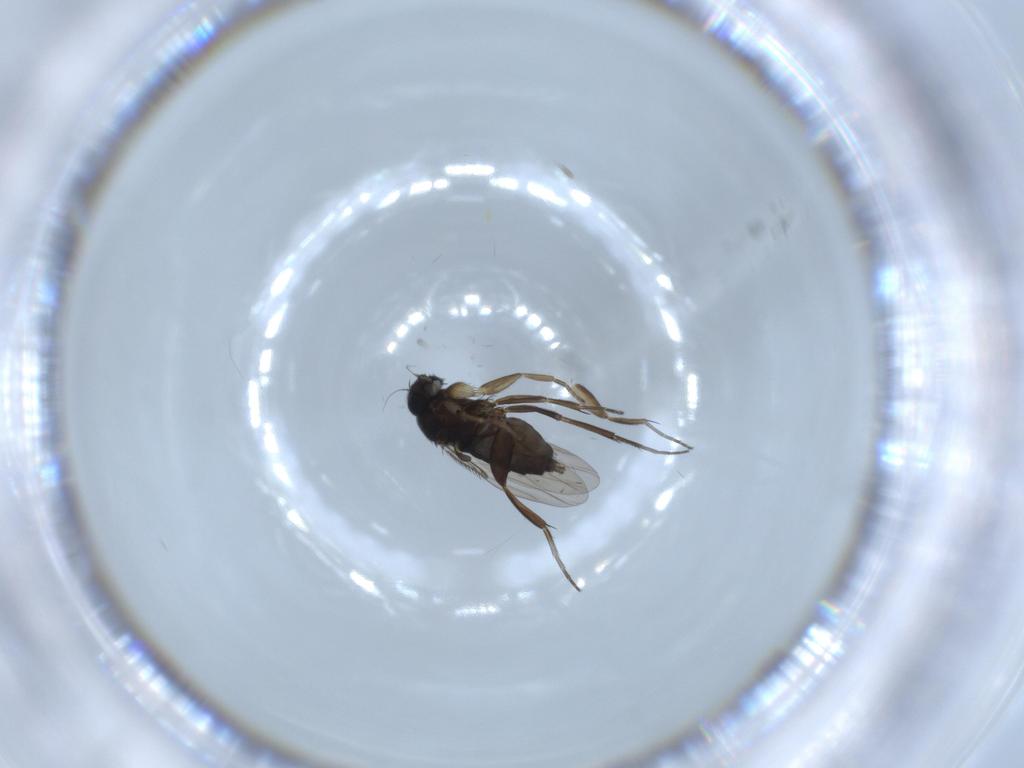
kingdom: Animalia
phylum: Arthropoda
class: Insecta
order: Diptera
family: Phoridae
